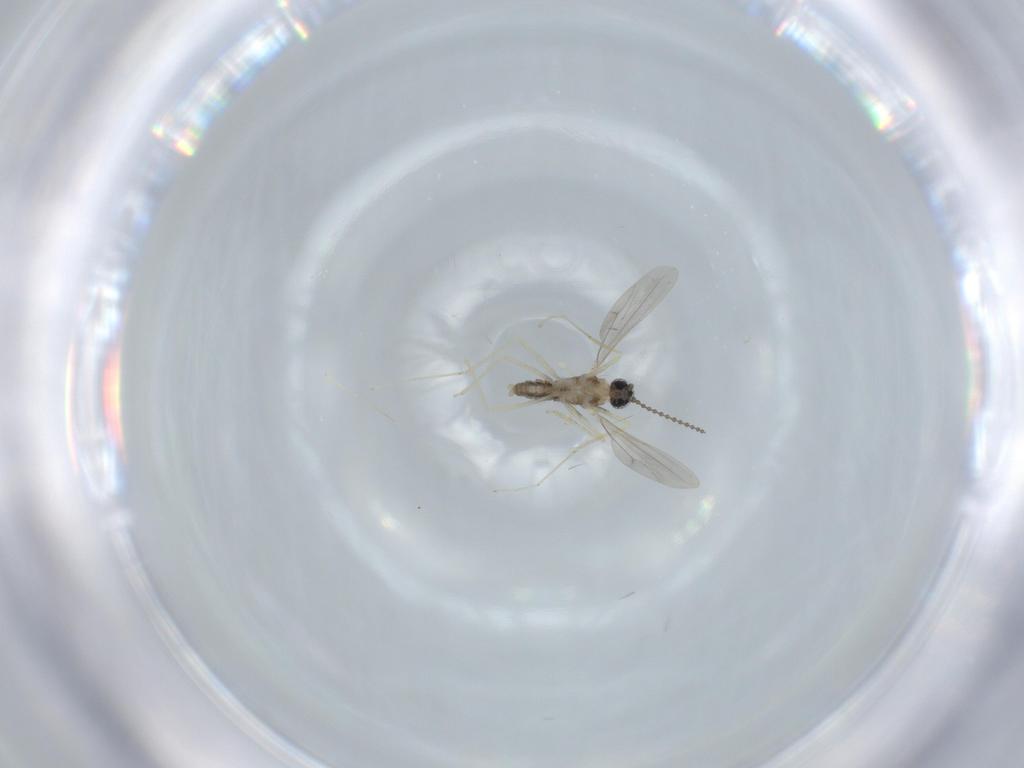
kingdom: Animalia
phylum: Arthropoda
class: Insecta
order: Diptera
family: Cecidomyiidae
